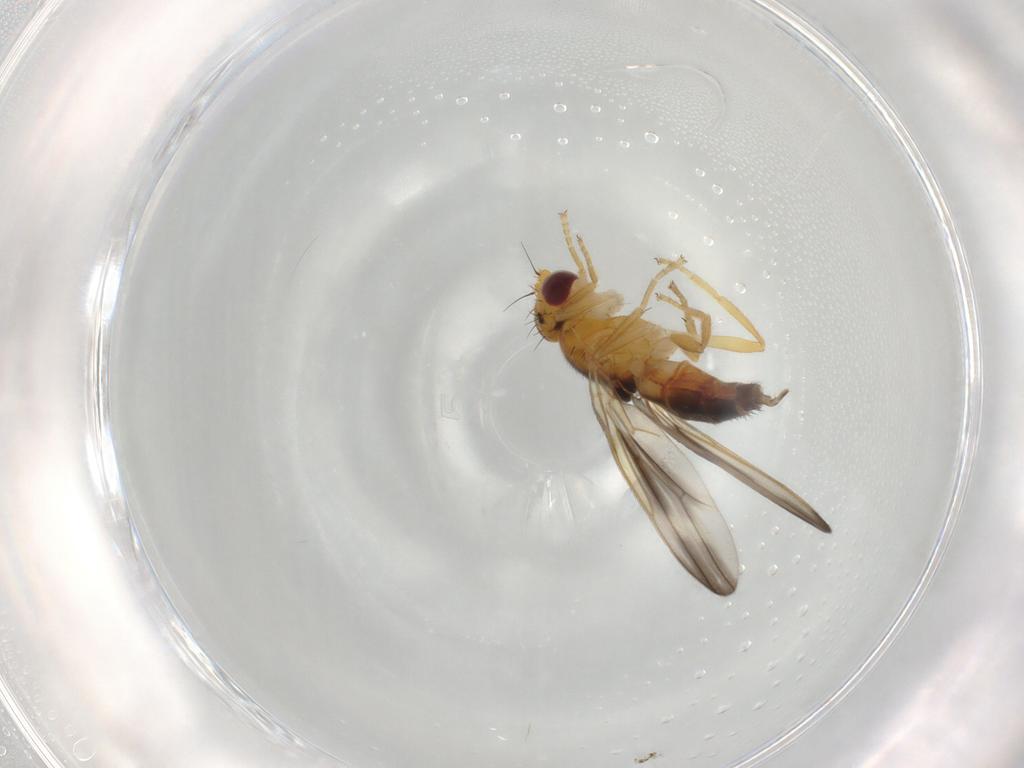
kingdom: Animalia
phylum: Arthropoda
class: Insecta
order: Diptera
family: Neurochaetidae
